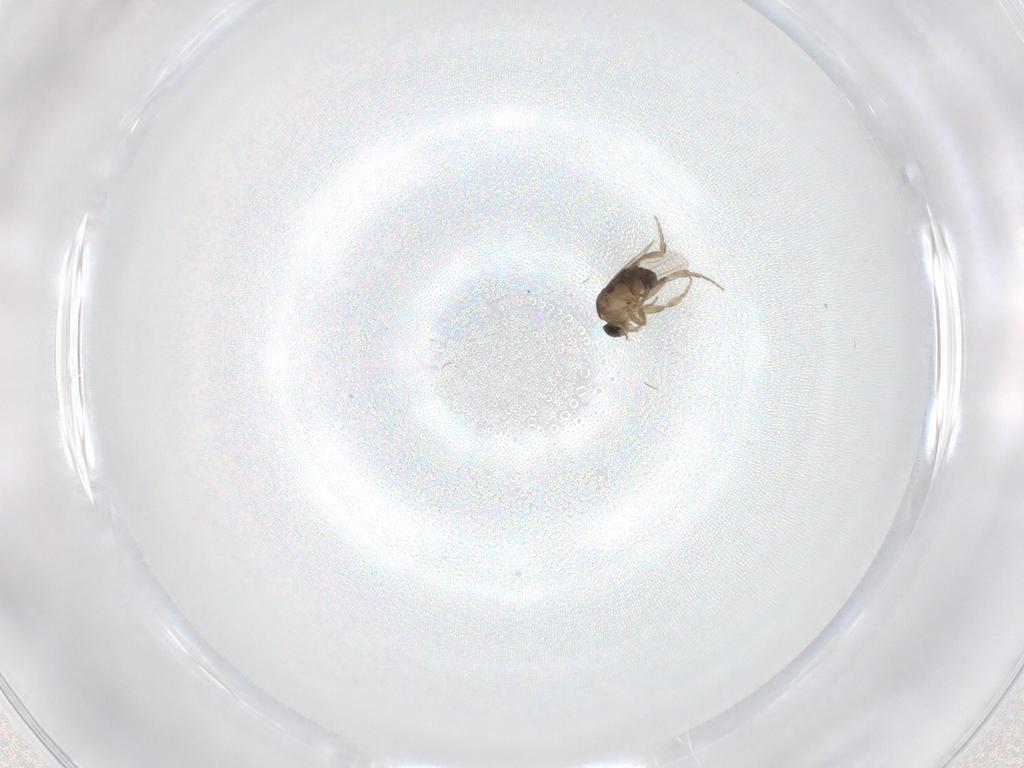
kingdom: Animalia
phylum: Arthropoda
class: Insecta
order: Diptera
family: Phoridae
